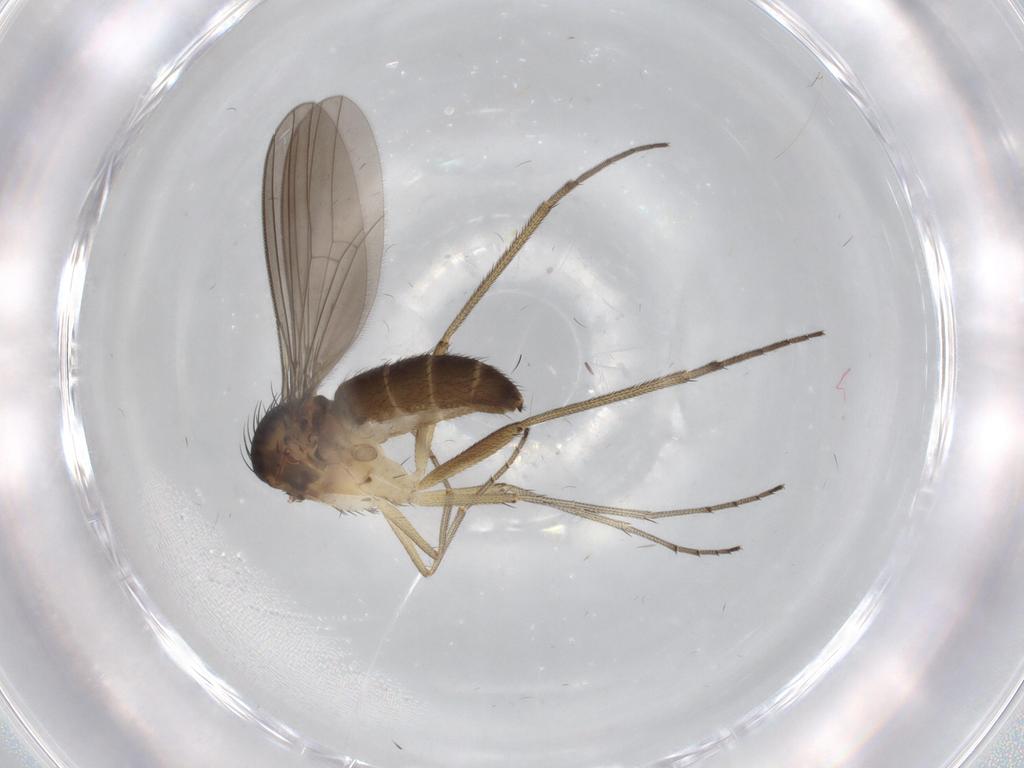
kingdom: Animalia
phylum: Arthropoda
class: Insecta
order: Diptera
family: Dolichopodidae
